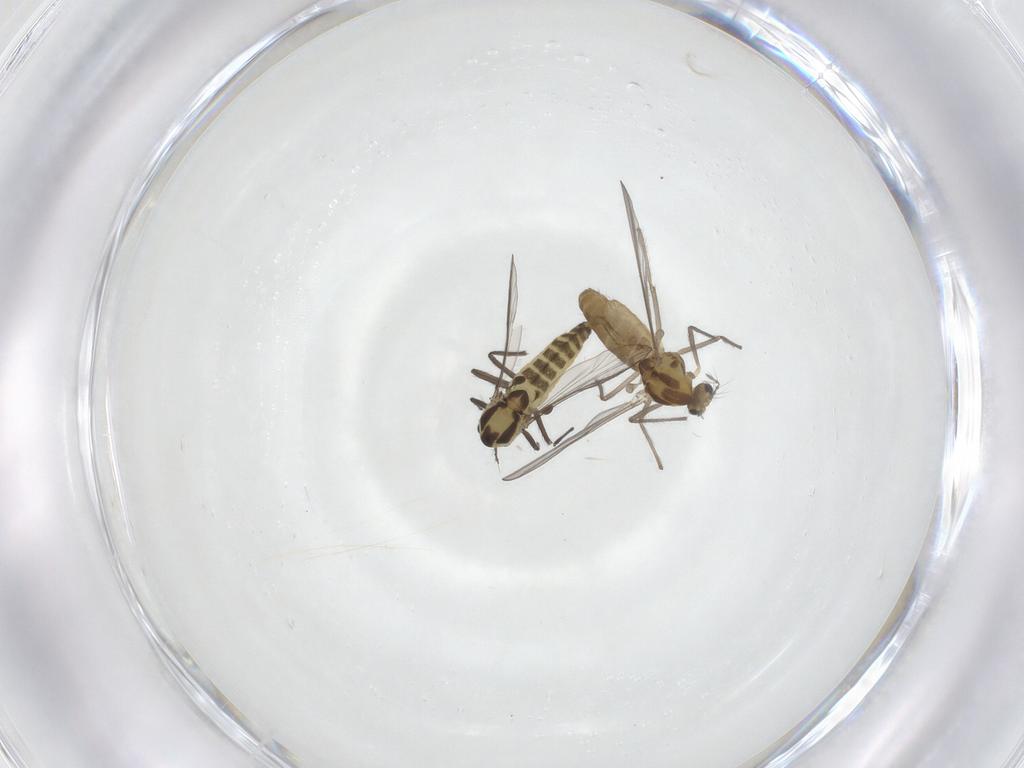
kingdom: Animalia
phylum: Arthropoda
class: Insecta
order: Diptera
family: Chironomidae
